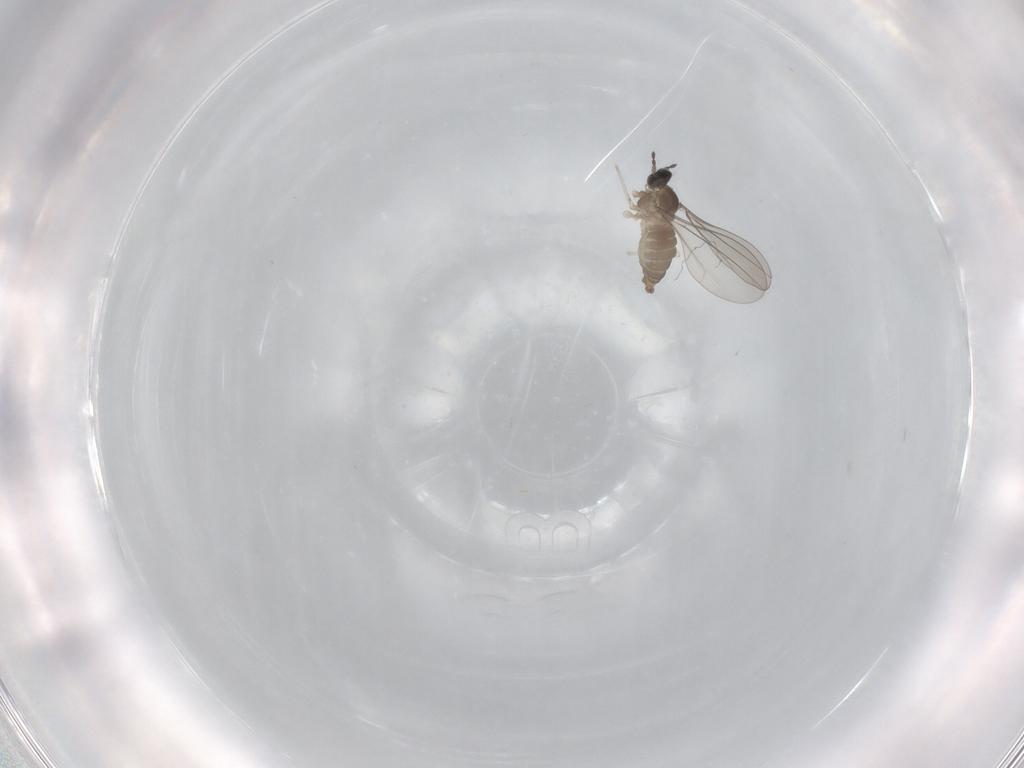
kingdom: Animalia
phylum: Arthropoda
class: Insecta
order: Diptera
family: Cecidomyiidae
